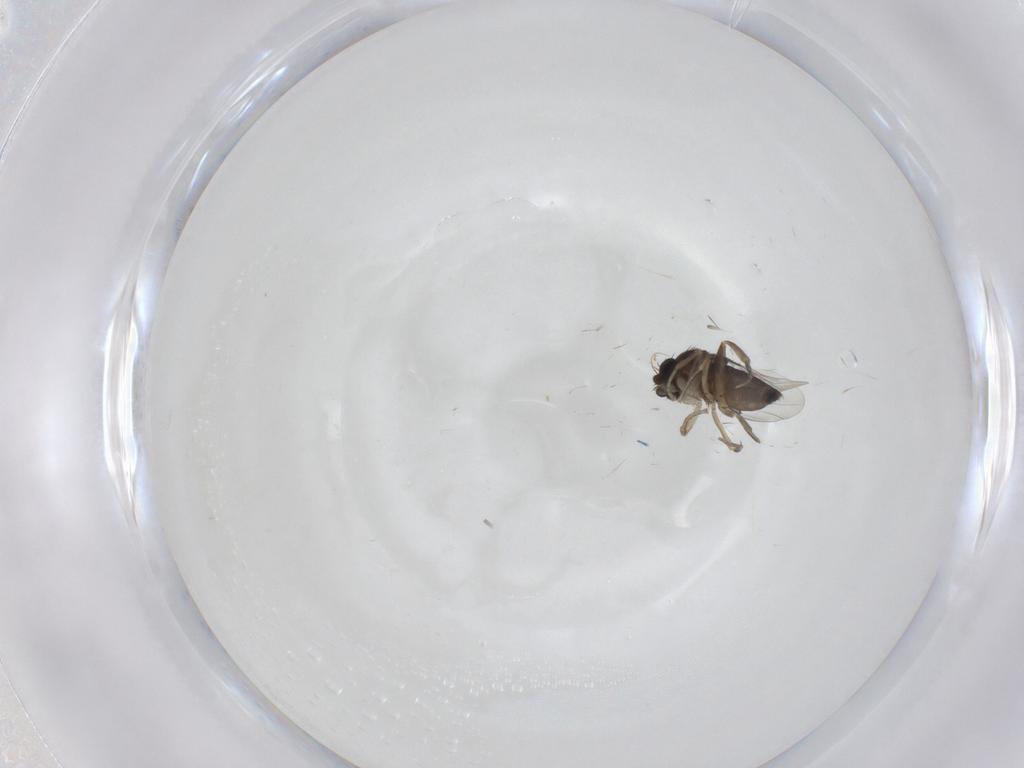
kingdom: Animalia
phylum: Arthropoda
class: Insecta
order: Diptera
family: Phoridae
